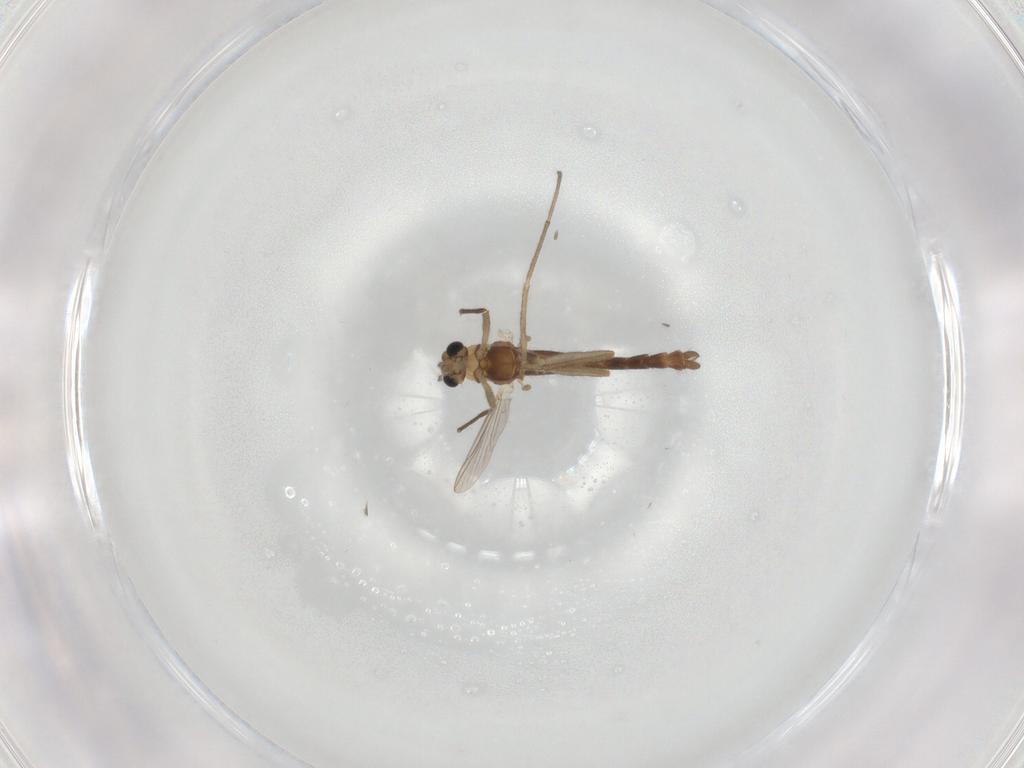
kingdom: Animalia
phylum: Arthropoda
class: Insecta
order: Diptera
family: Chironomidae
